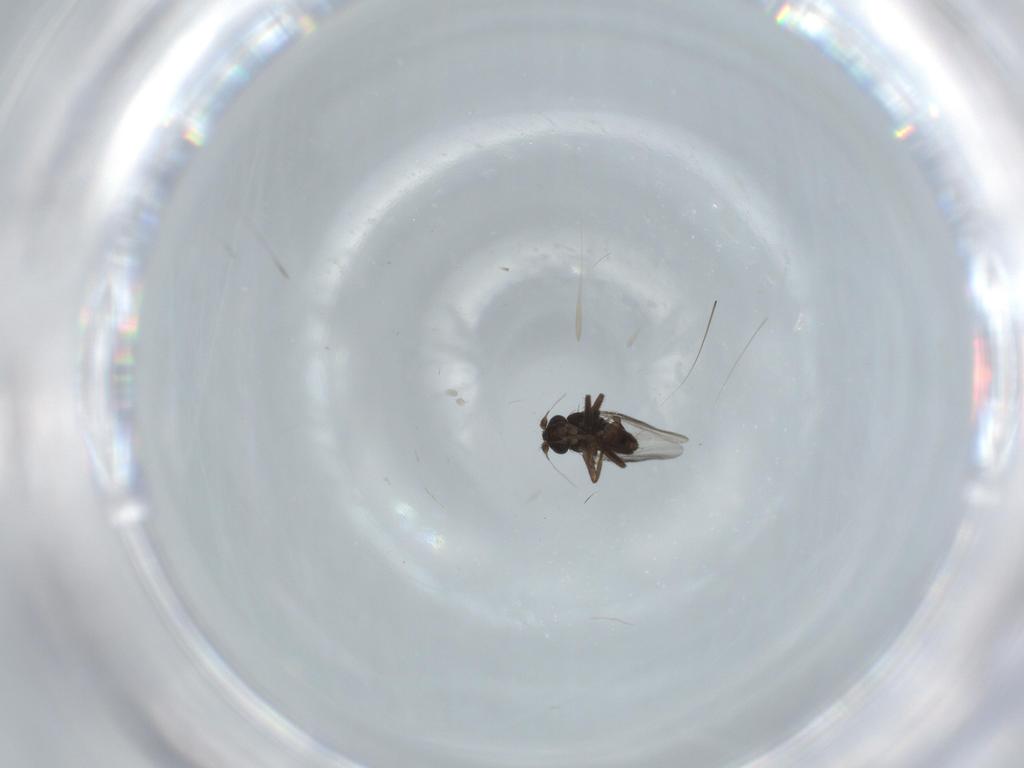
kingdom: Animalia
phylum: Arthropoda
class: Insecta
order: Diptera
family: Sphaeroceridae
